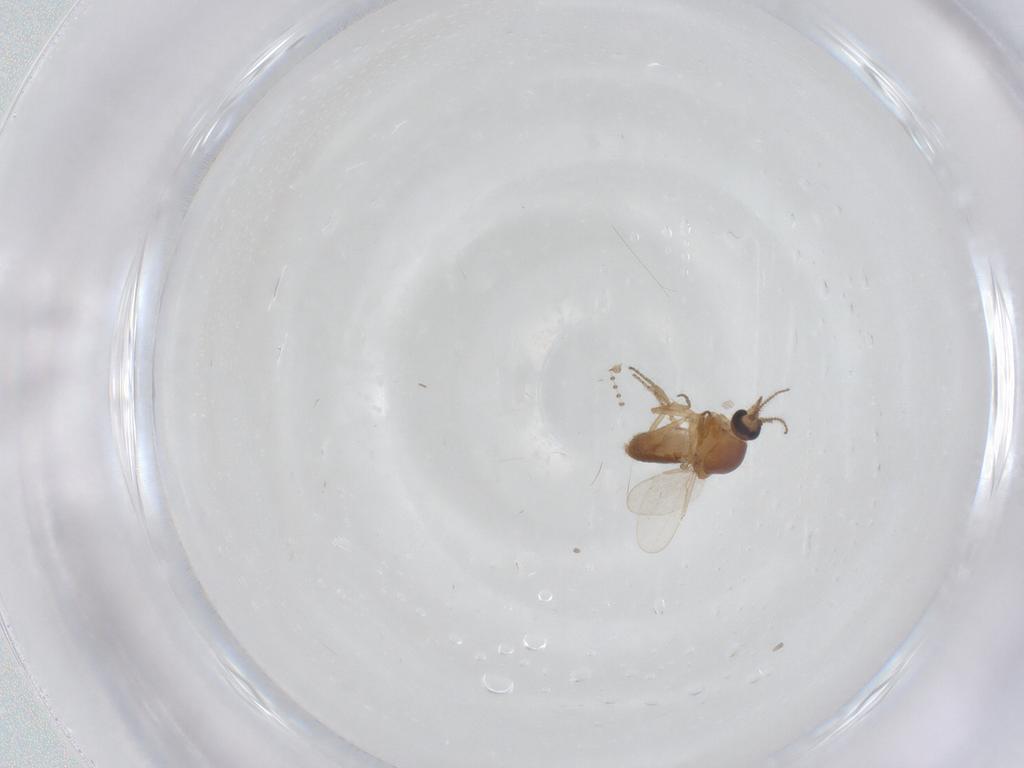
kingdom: Animalia
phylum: Arthropoda
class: Insecta
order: Diptera
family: Ceratopogonidae
